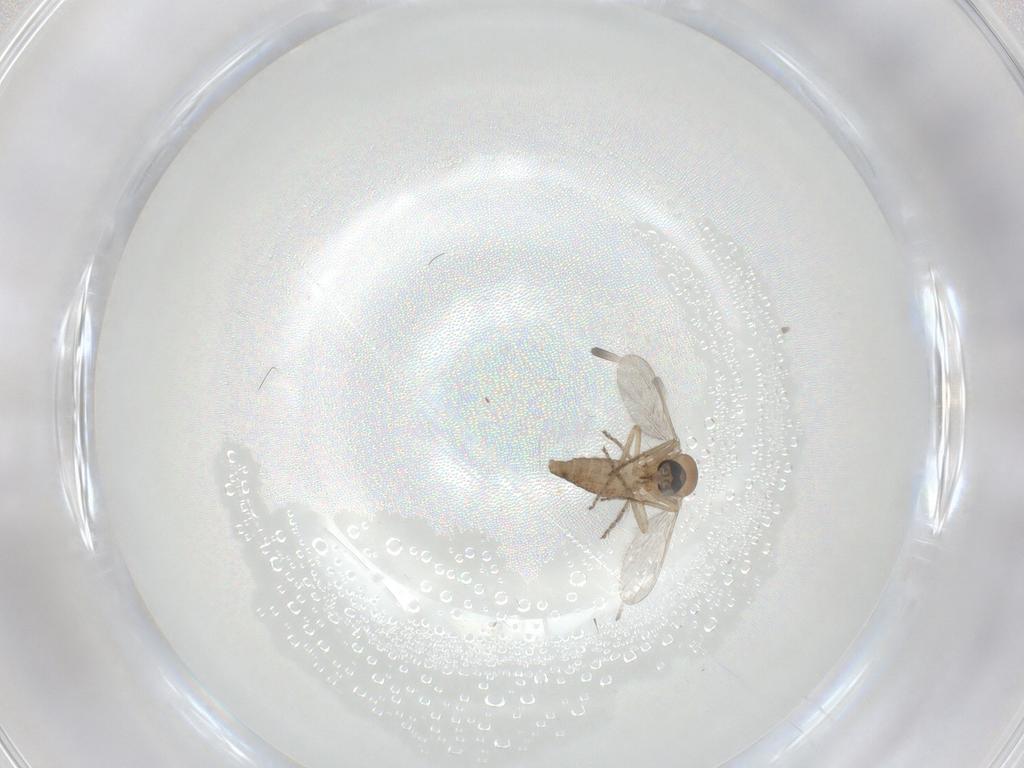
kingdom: Animalia
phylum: Arthropoda
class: Insecta
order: Diptera
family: Ceratopogonidae
